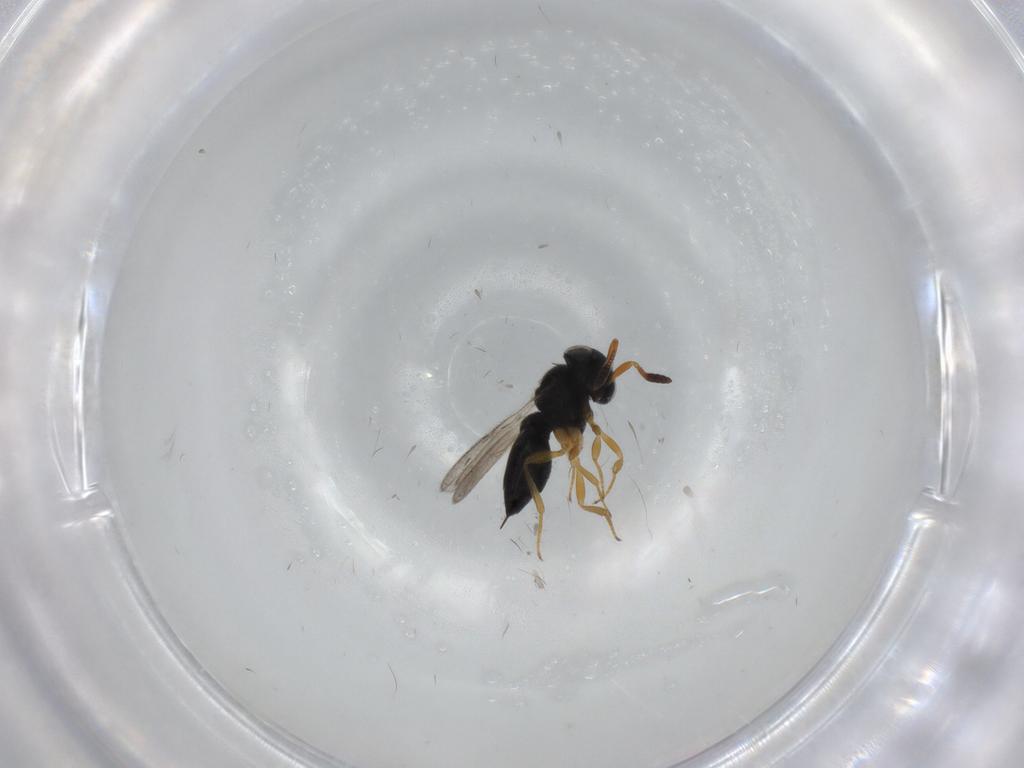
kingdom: Animalia
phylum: Arthropoda
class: Insecta
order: Hymenoptera
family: Scelionidae
